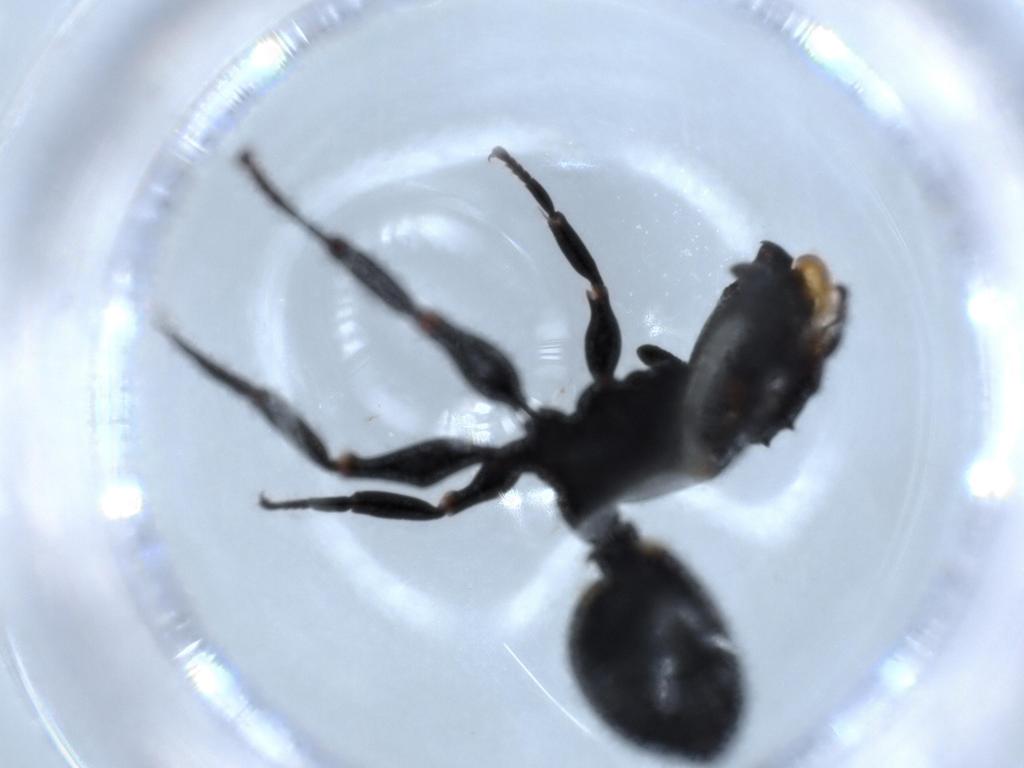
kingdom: Animalia
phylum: Arthropoda
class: Insecta
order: Hymenoptera
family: Formicidae
